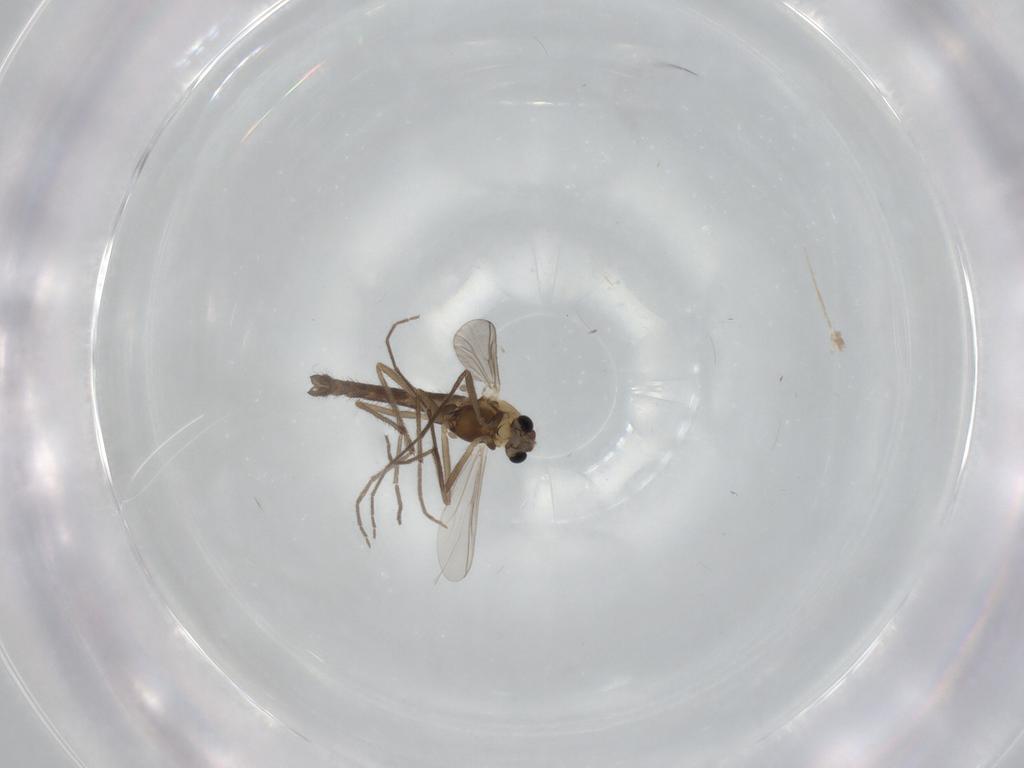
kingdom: Animalia
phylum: Arthropoda
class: Insecta
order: Diptera
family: Chironomidae
